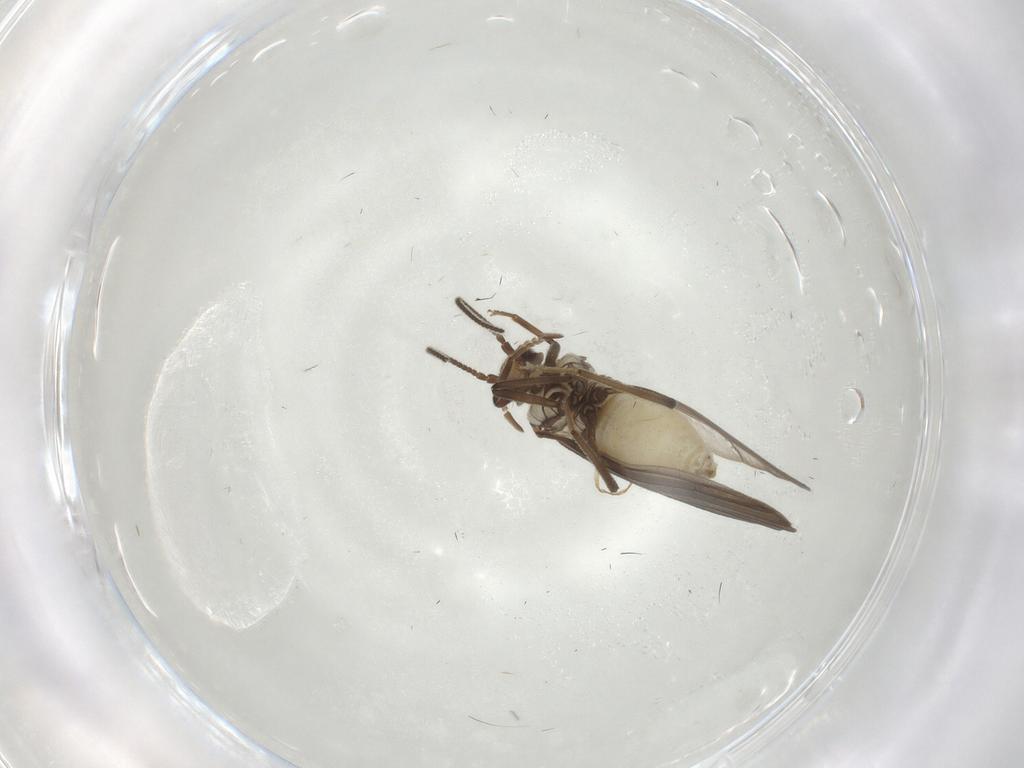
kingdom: Animalia
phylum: Arthropoda
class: Insecta
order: Neuroptera
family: Coniopterygidae
